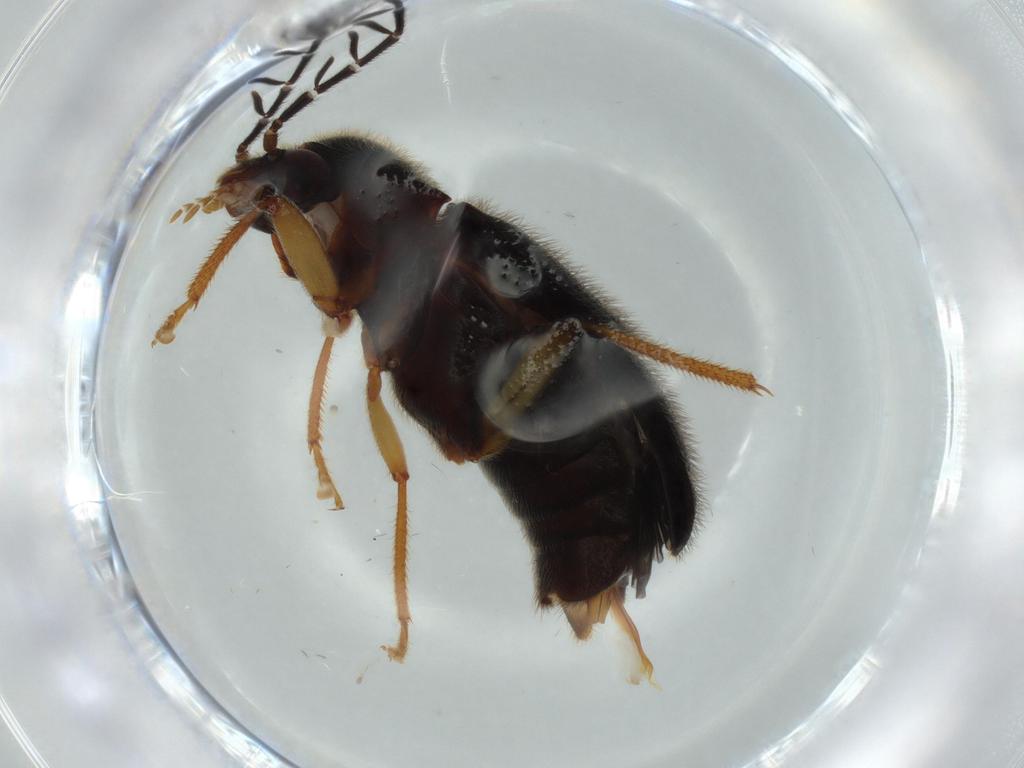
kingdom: Animalia
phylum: Arthropoda
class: Insecta
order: Coleoptera
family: Ptilodactylidae
